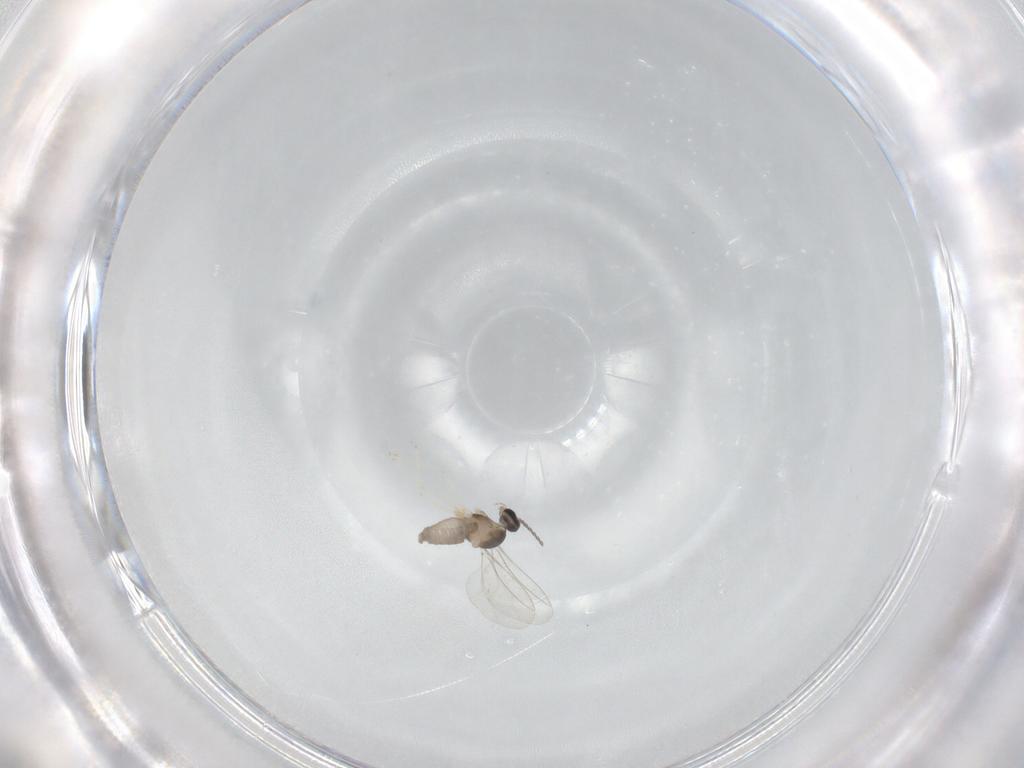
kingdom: Animalia
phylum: Arthropoda
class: Insecta
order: Diptera
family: Cecidomyiidae
